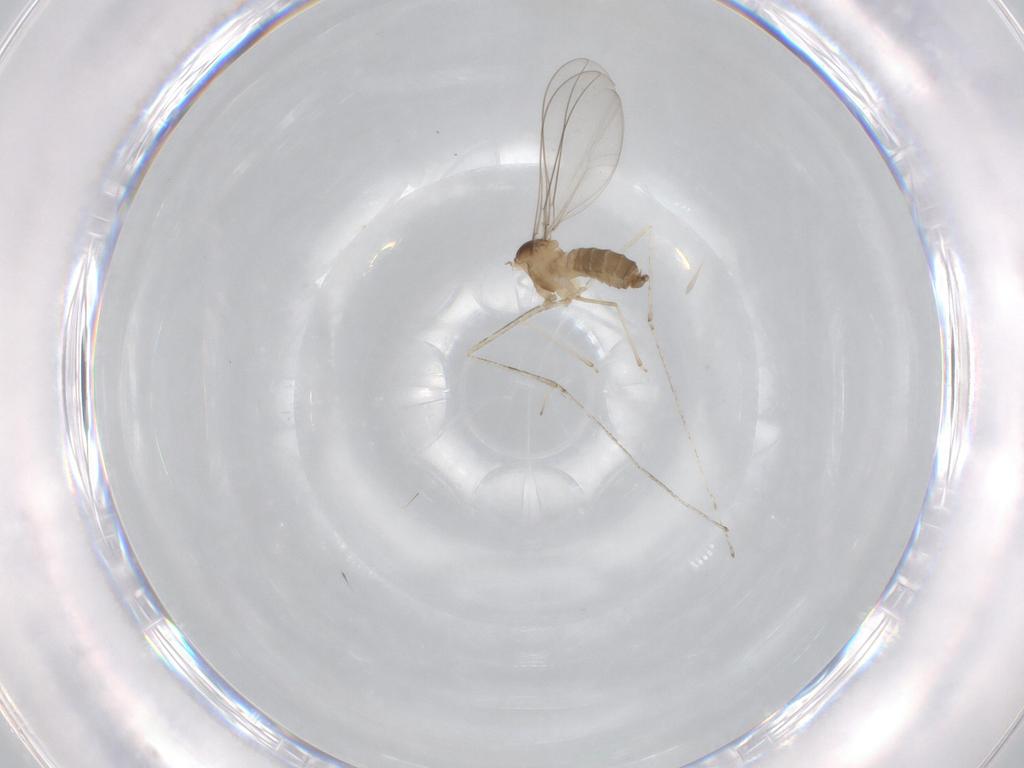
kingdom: Animalia
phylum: Arthropoda
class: Insecta
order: Diptera
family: Cecidomyiidae
